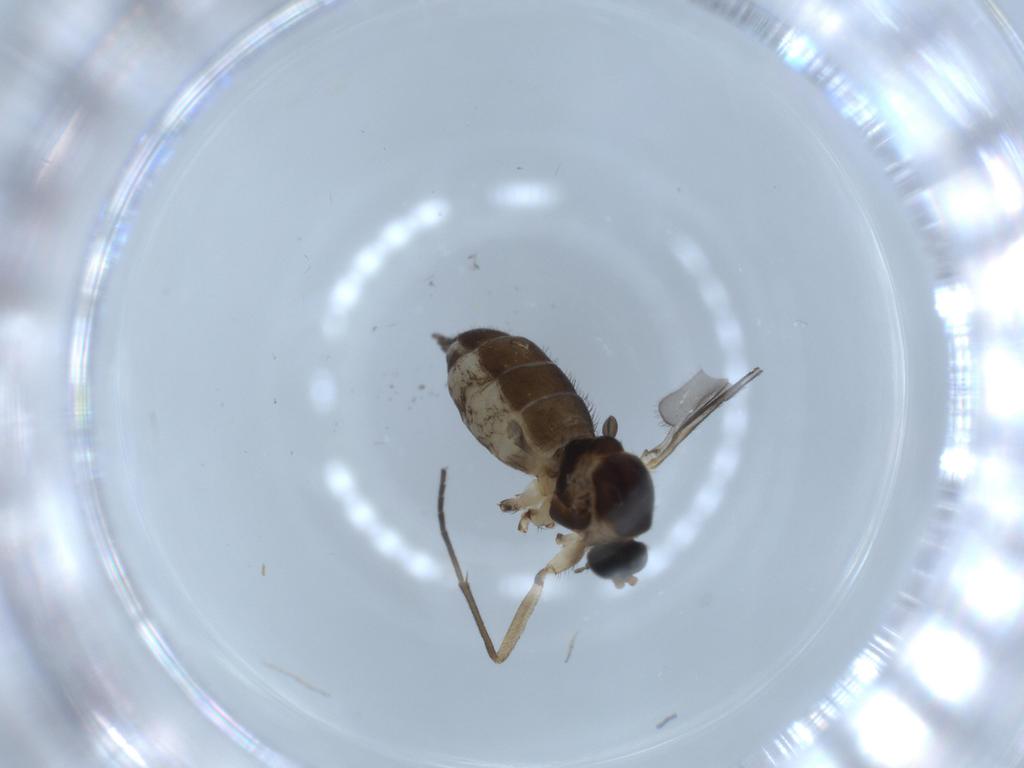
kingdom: Animalia
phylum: Arthropoda
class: Insecta
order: Diptera
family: Sciaridae
